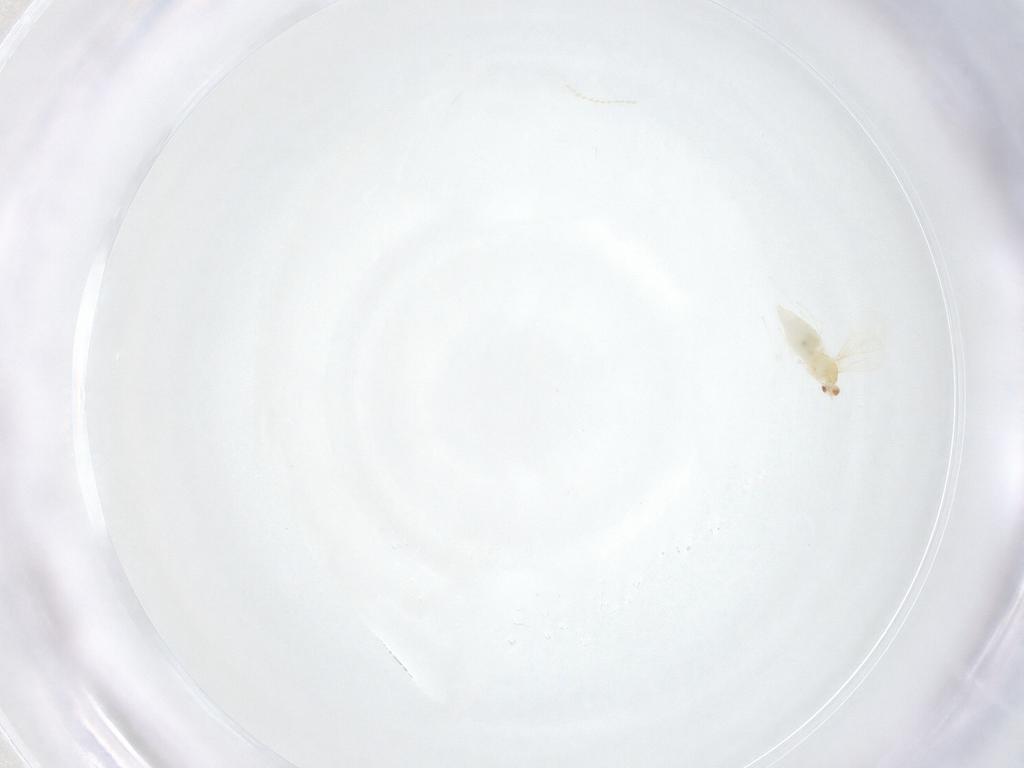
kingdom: Animalia
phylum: Arthropoda
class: Insecta
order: Diptera
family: Cecidomyiidae
